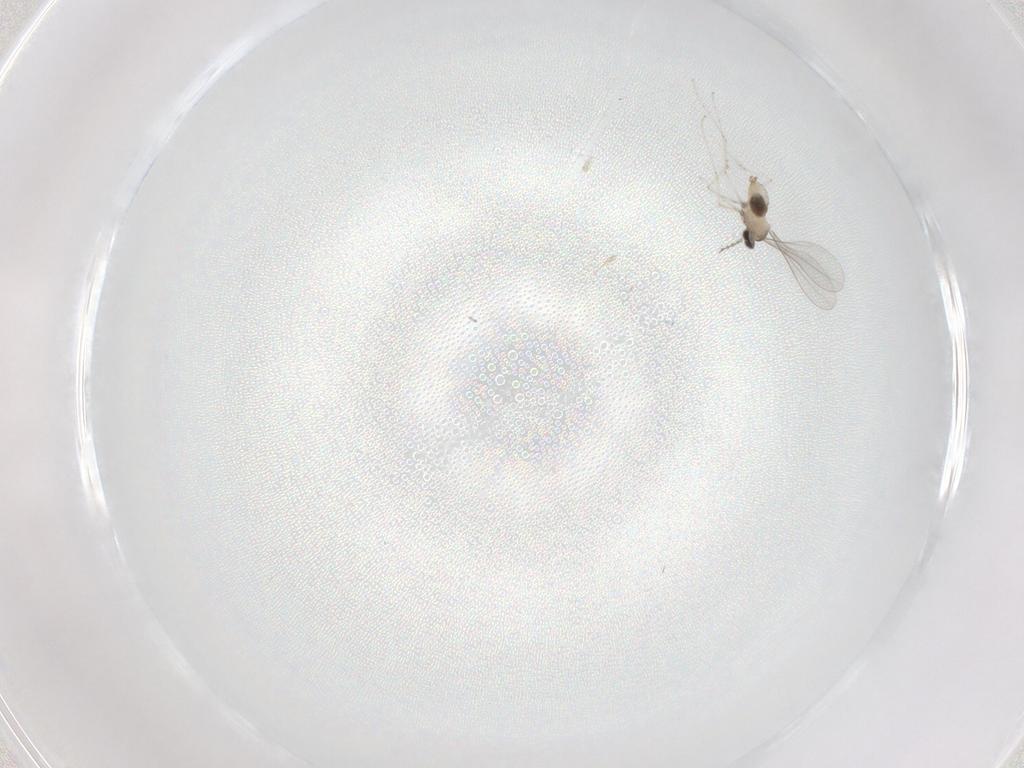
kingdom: Animalia
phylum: Arthropoda
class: Insecta
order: Diptera
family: Cecidomyiidae
